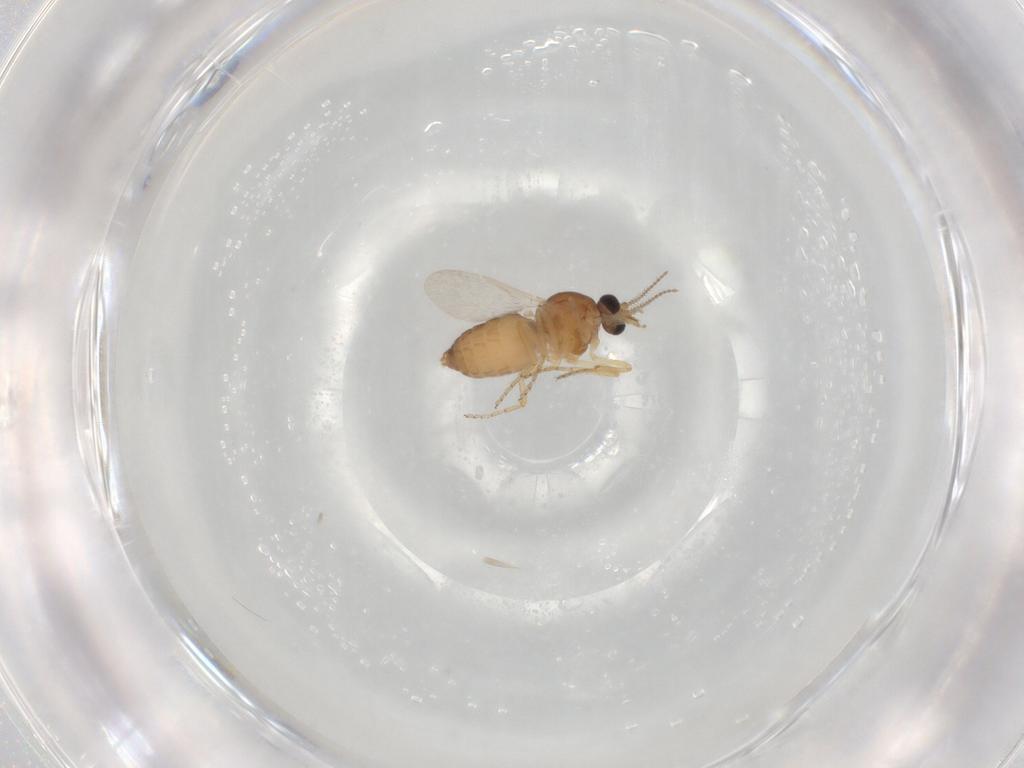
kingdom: Animalia
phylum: Arthropoda
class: Insecta
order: Diptera
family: Ceratopogonidae
